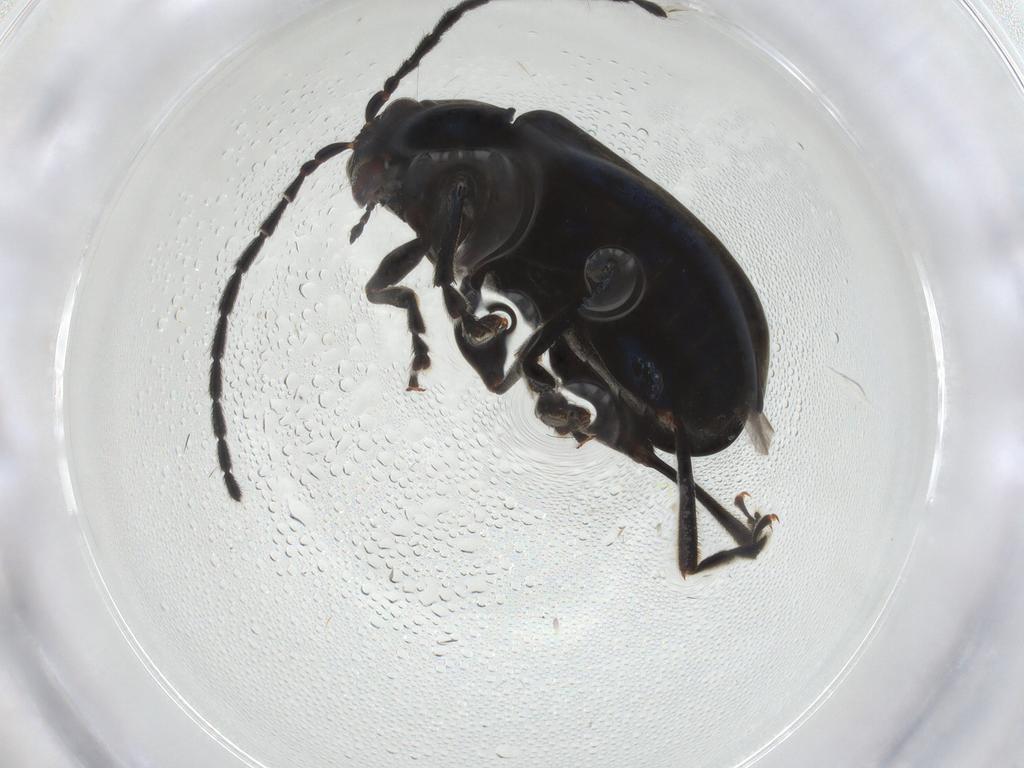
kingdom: Animalia
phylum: Arthropoda
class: Insecta
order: Coleoptera
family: Chrysomelidae
